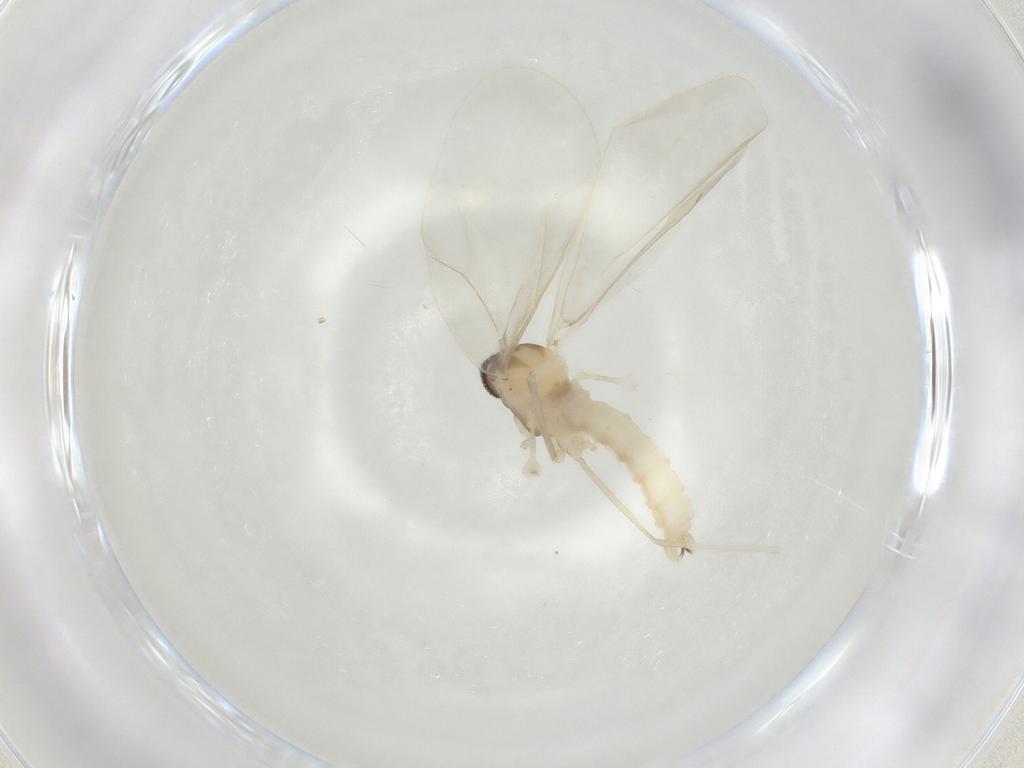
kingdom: Animalia
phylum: Arthropoda
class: Insecta
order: Diptera
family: Cecidomyiidae
